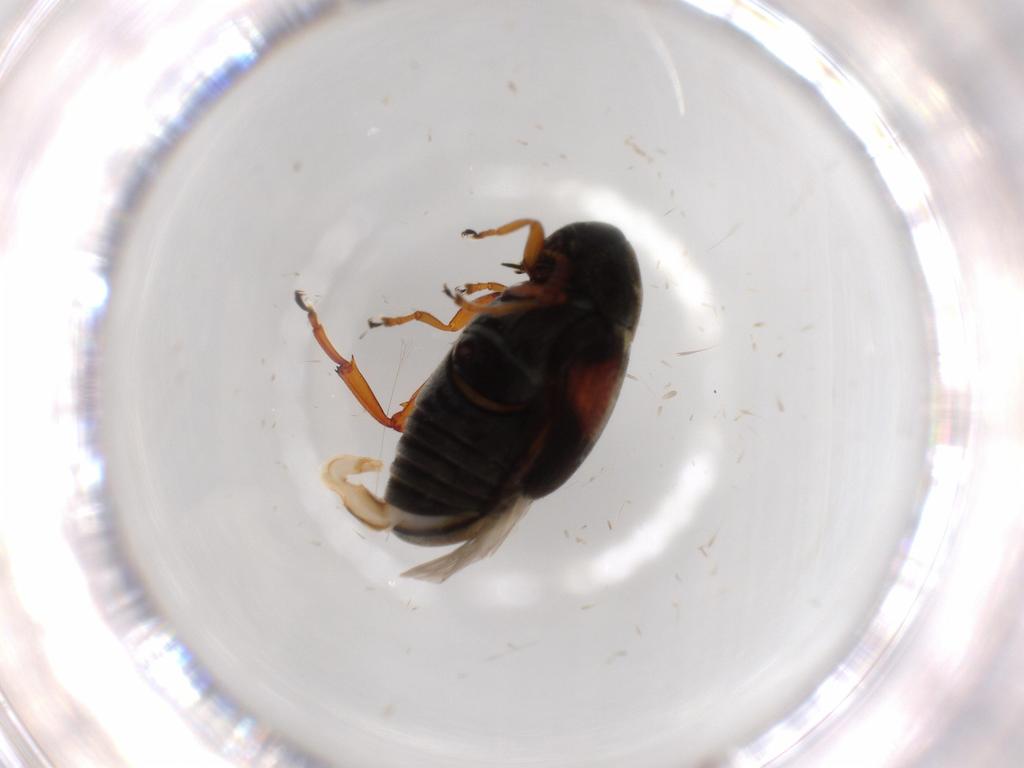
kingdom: Animalia
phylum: Arthropoda
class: Insecta
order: Coleoptera
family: Chrysomelidae
